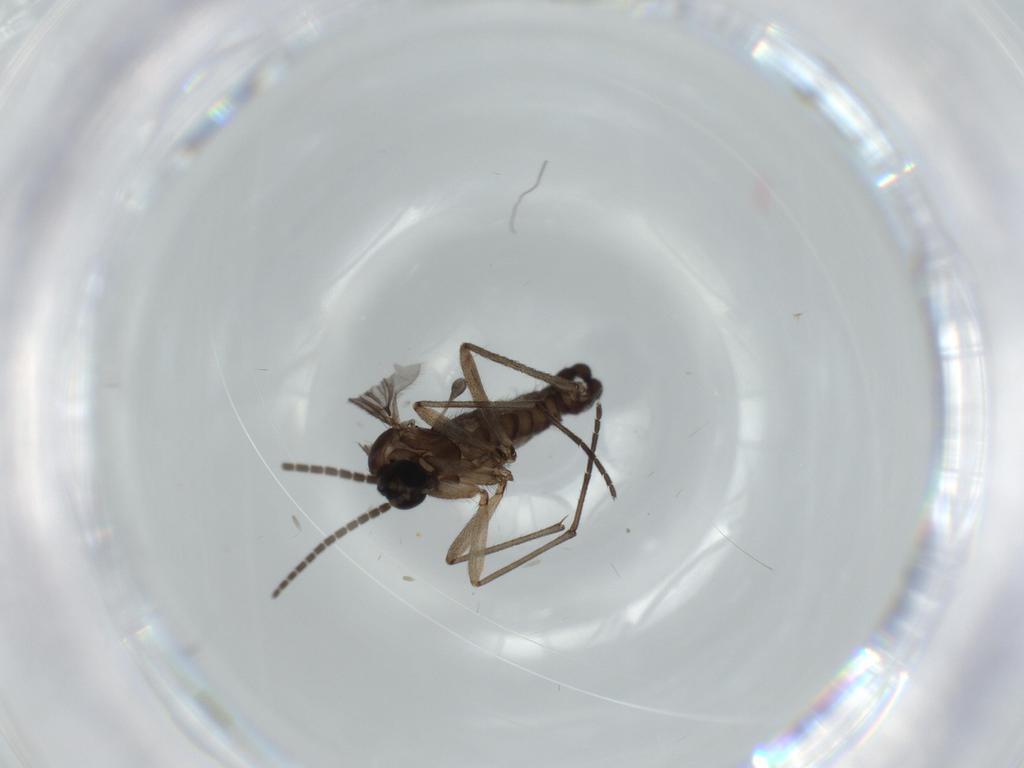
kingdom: Animalia
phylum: Arthropoda
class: Insecta
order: Diptera
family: Sciaridae
